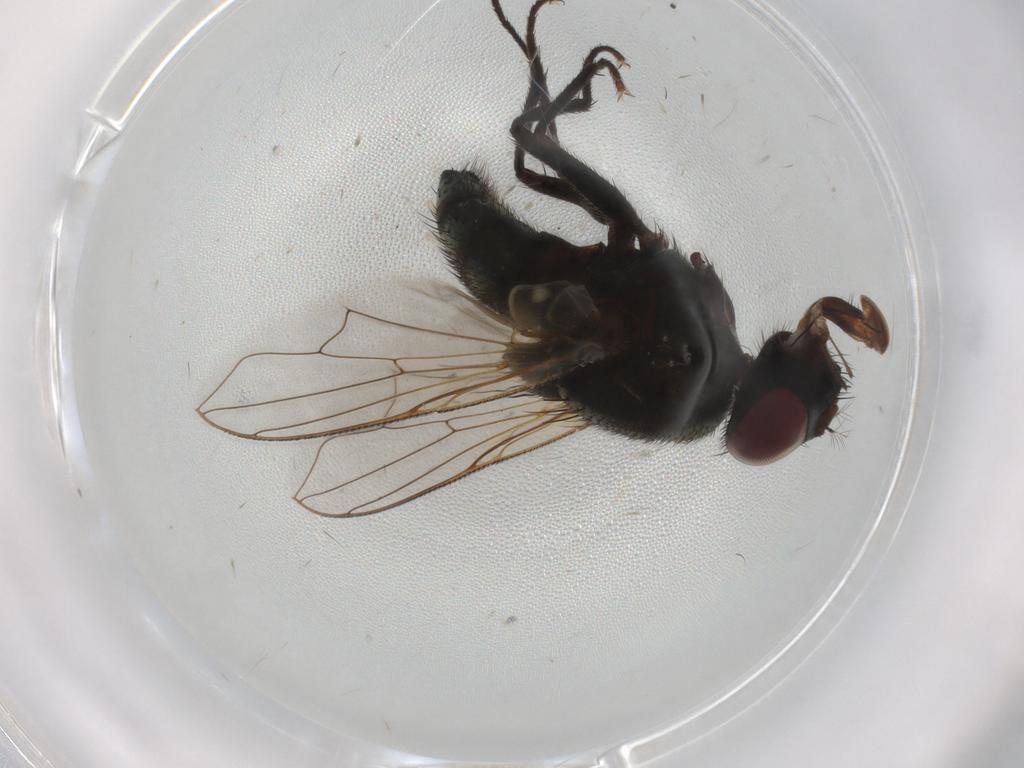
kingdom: Animalia
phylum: Arthropoda
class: Insecta
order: Diptera
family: Muscidae
